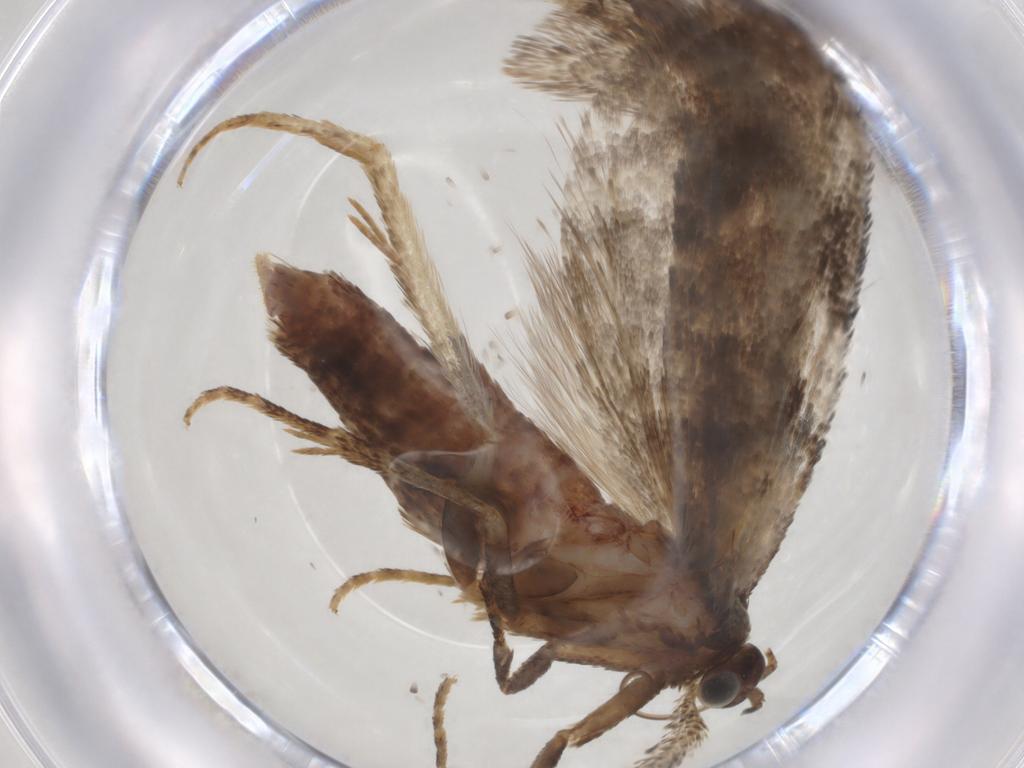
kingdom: Animalia
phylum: Arthropoda
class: Insecta
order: Lepidoptera
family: Limacodidae
